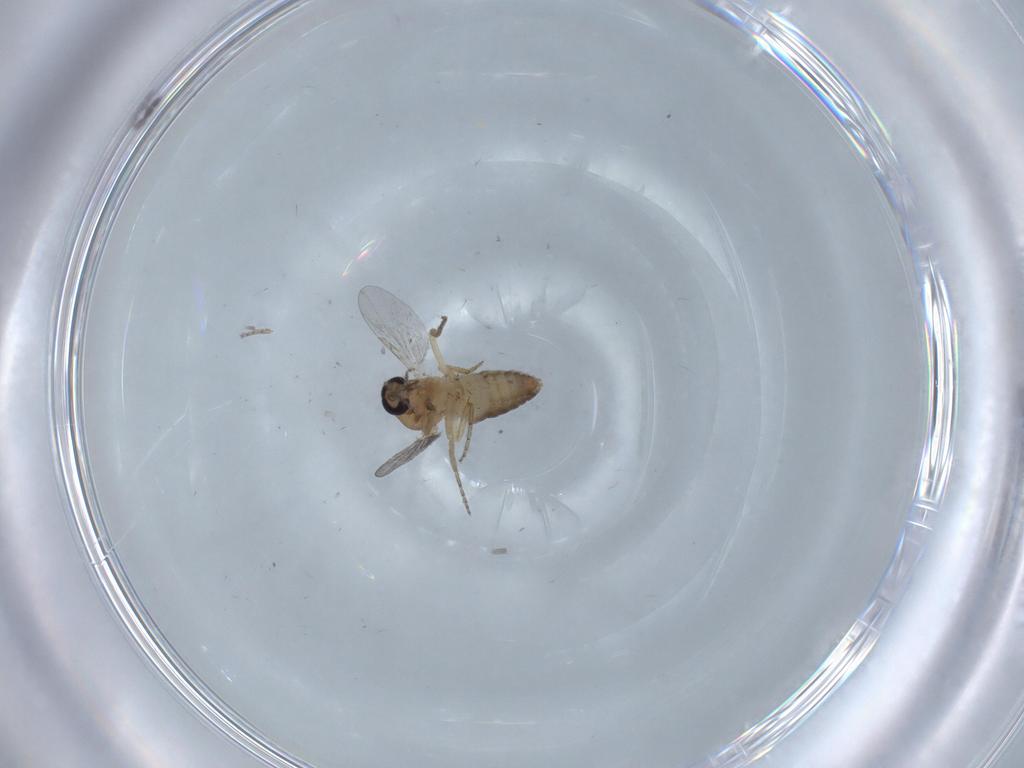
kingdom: Animalia
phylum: Arthropoda
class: Insecta
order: Diptera
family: Ceratopogonidae
